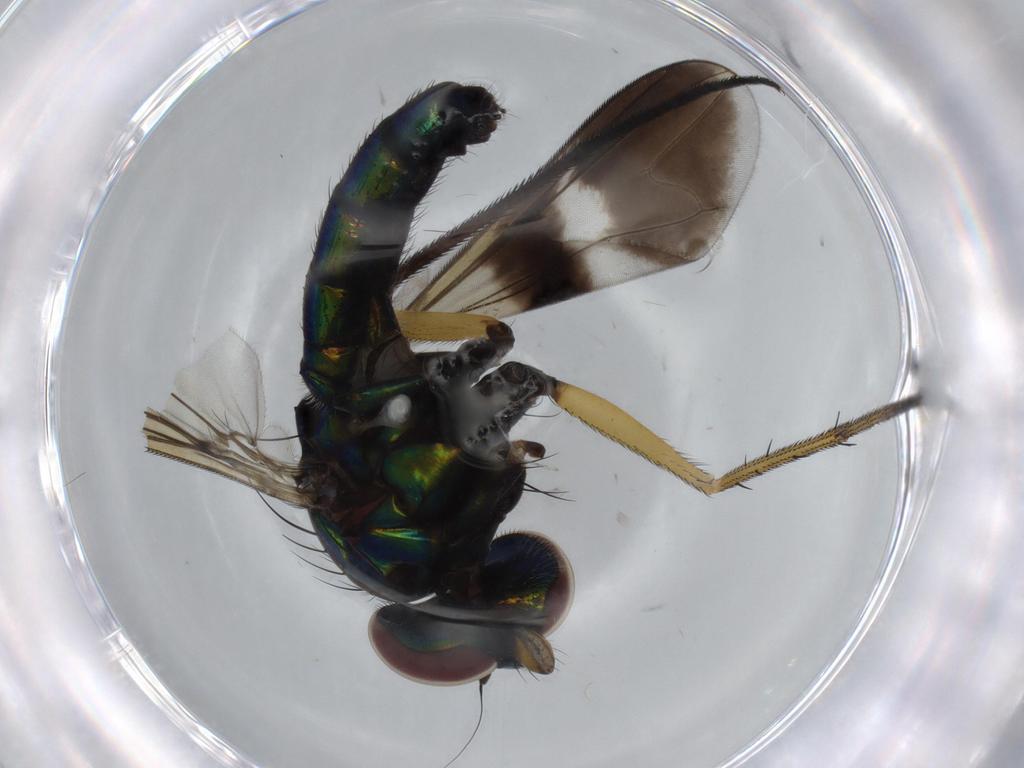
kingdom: Animalia
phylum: Arthropoda
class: Insecta
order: Diptera
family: Dolichopodidae
